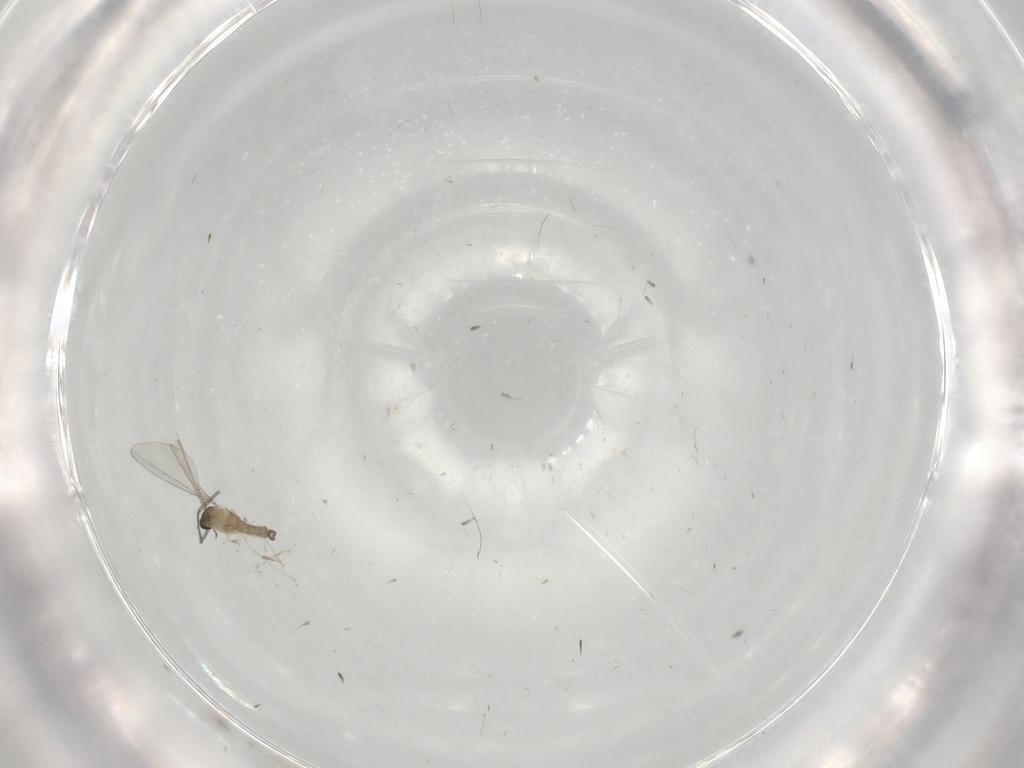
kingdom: Animalia
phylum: Arthropoda
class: Insecta
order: Diptera
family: Cecidomyiidae
